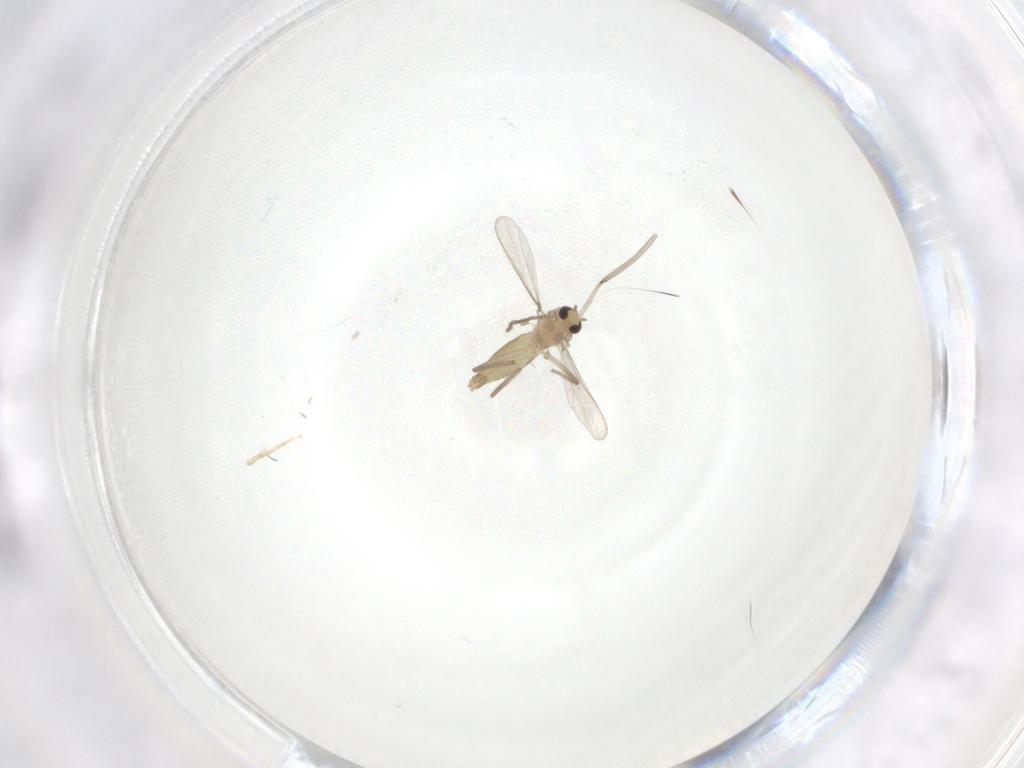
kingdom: Animalia
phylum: Arthropoda
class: Insecta
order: Diptera
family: Chironomidae
